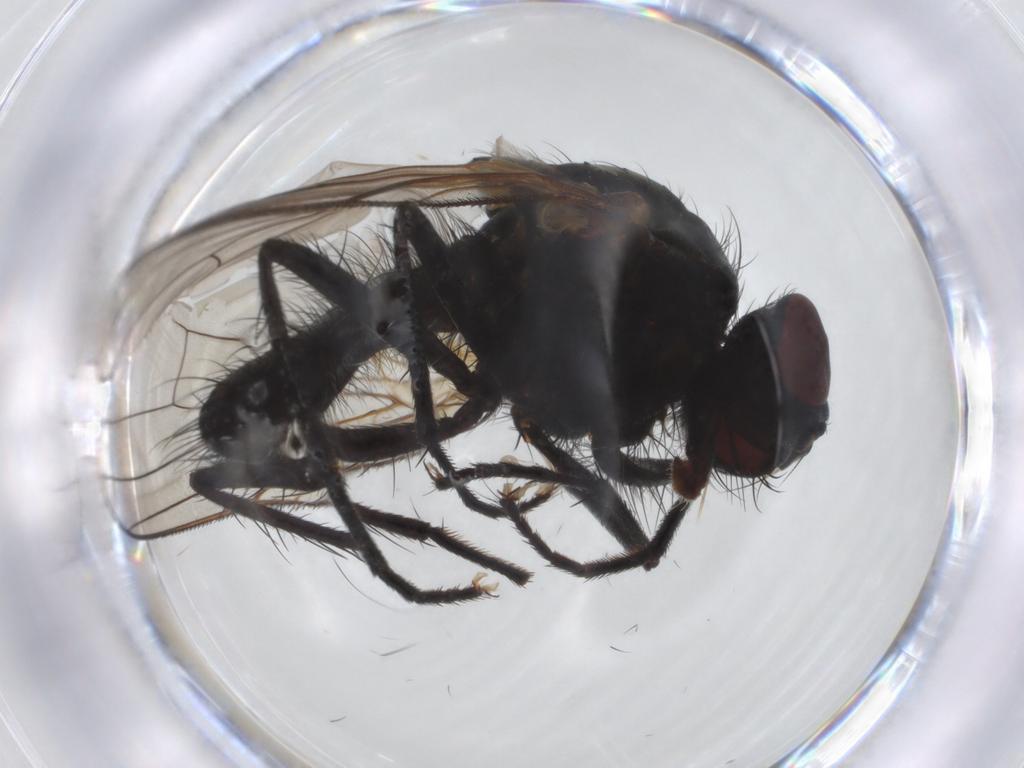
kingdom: Animalia
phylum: Arthropoda
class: Insecta
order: Diptera
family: Anthomyiidae
